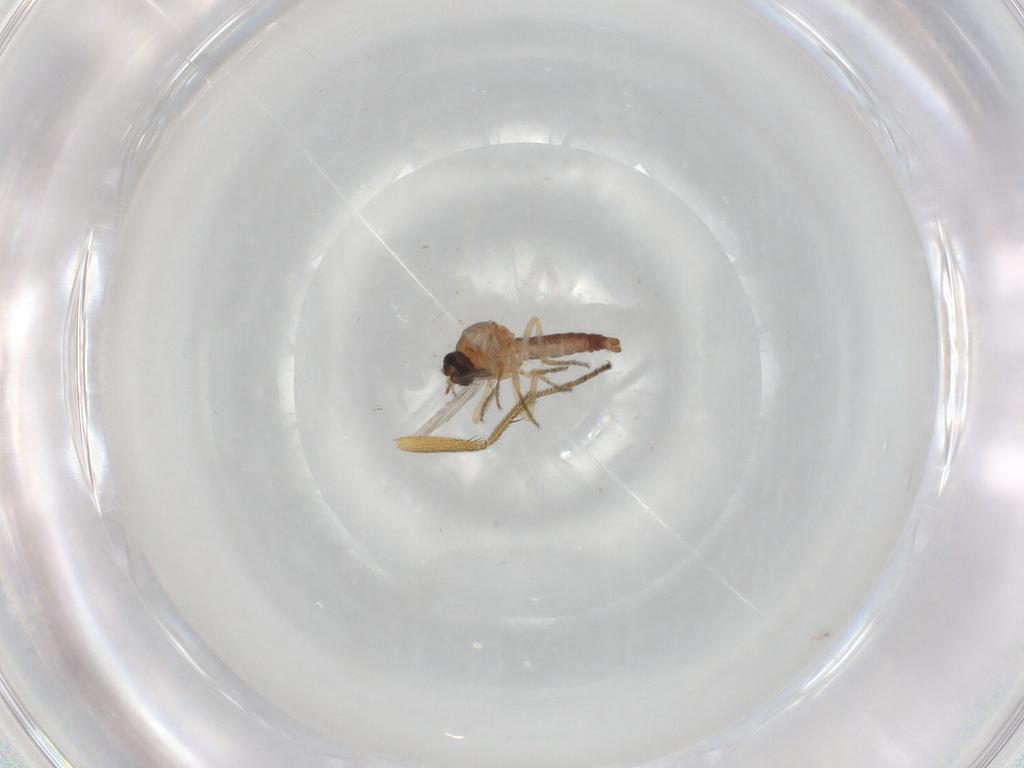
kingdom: Animalia
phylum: Arthropoda
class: Insecta
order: Diptera
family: Ceratopogonidae
